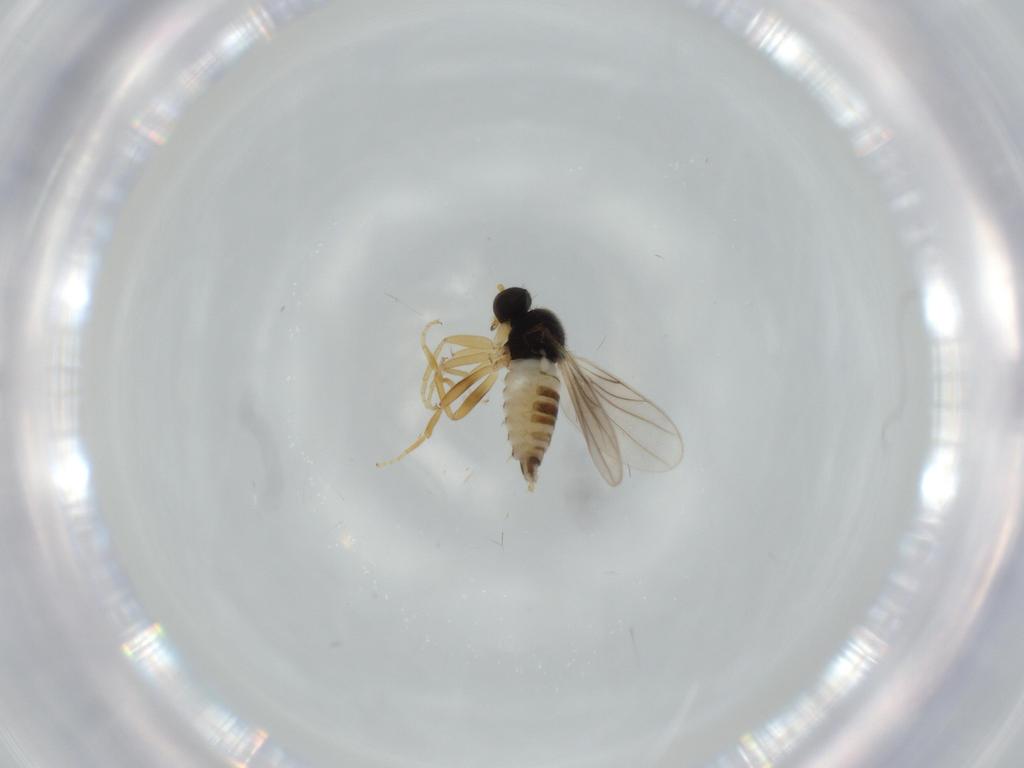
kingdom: Animalia
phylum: Arthropoda
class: Insecta
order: Diptera
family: Hybotidae
